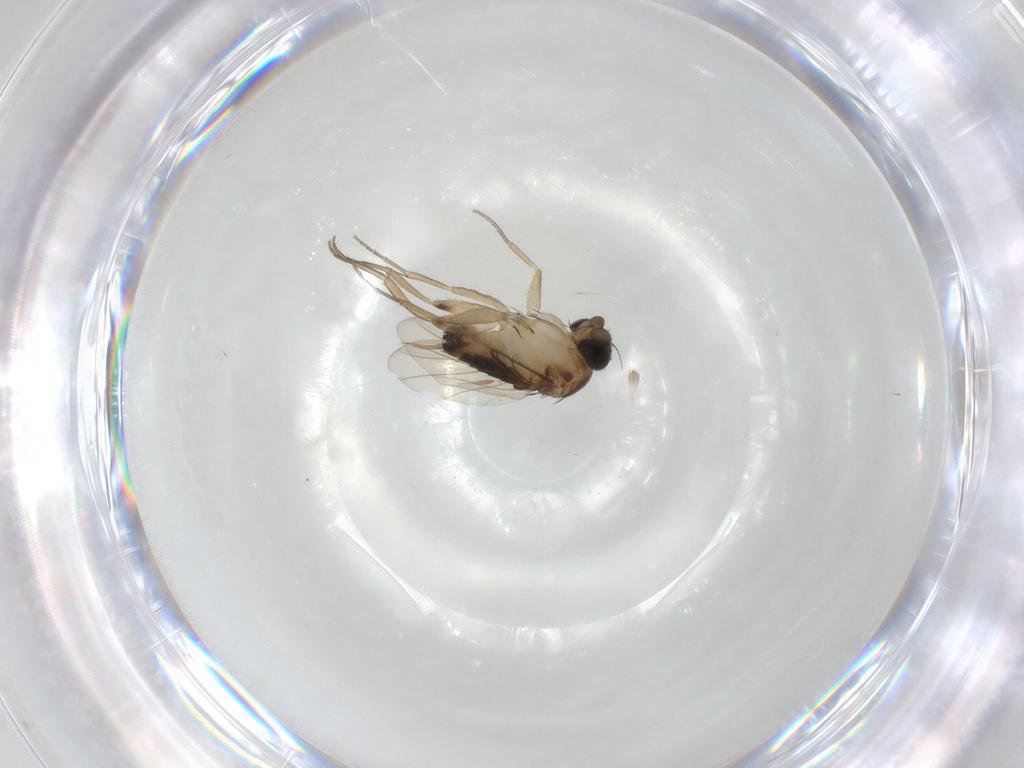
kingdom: Animalia
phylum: Arthropoda
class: Insecta
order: Diptera
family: Phoridae
